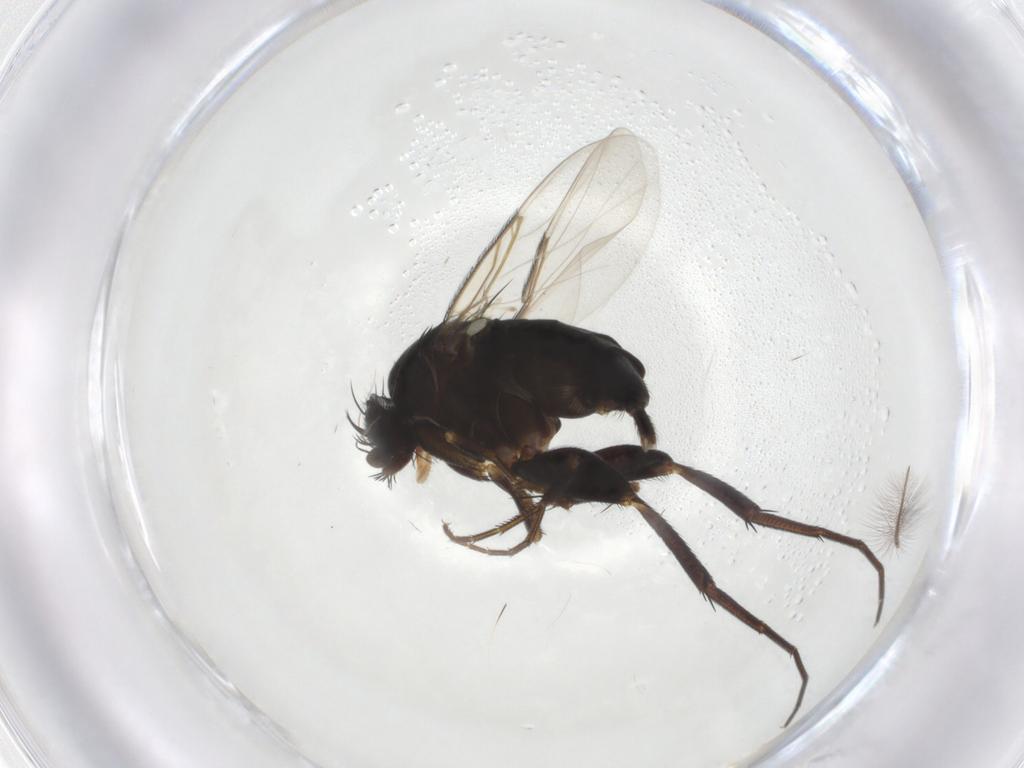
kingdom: Animalia
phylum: Arthropoda
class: Insecta
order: Diptera
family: Phoridae
